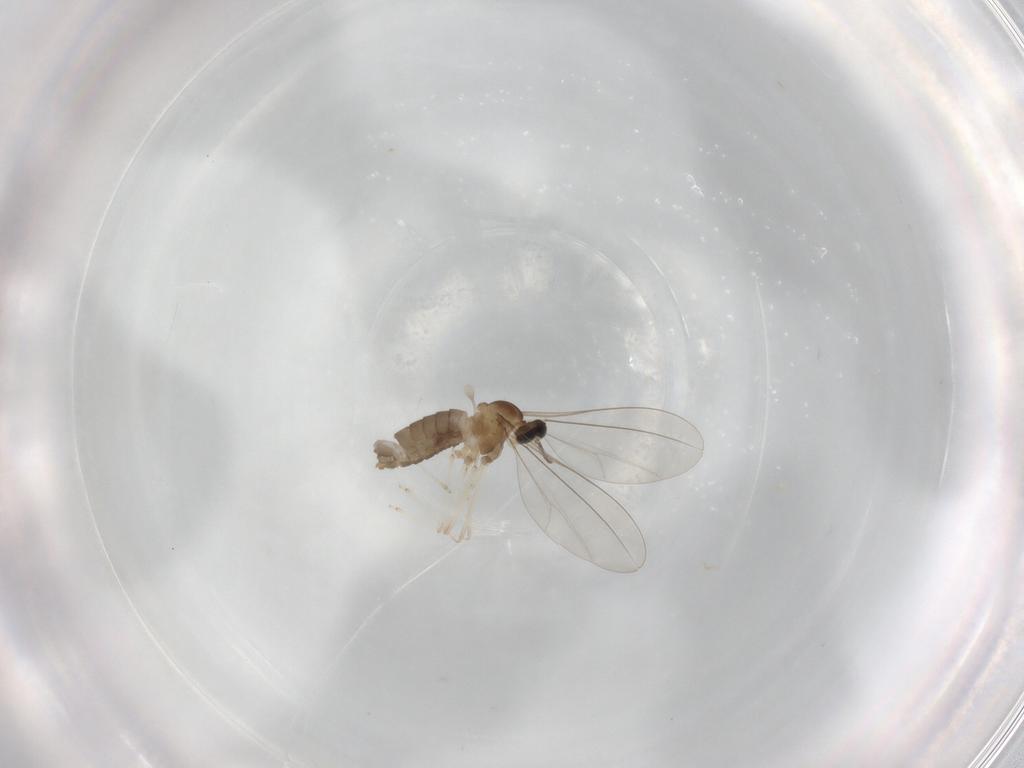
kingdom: Animalia
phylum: Arthropoda
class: Insecta
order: Diptera
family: Cecidomyiidae
